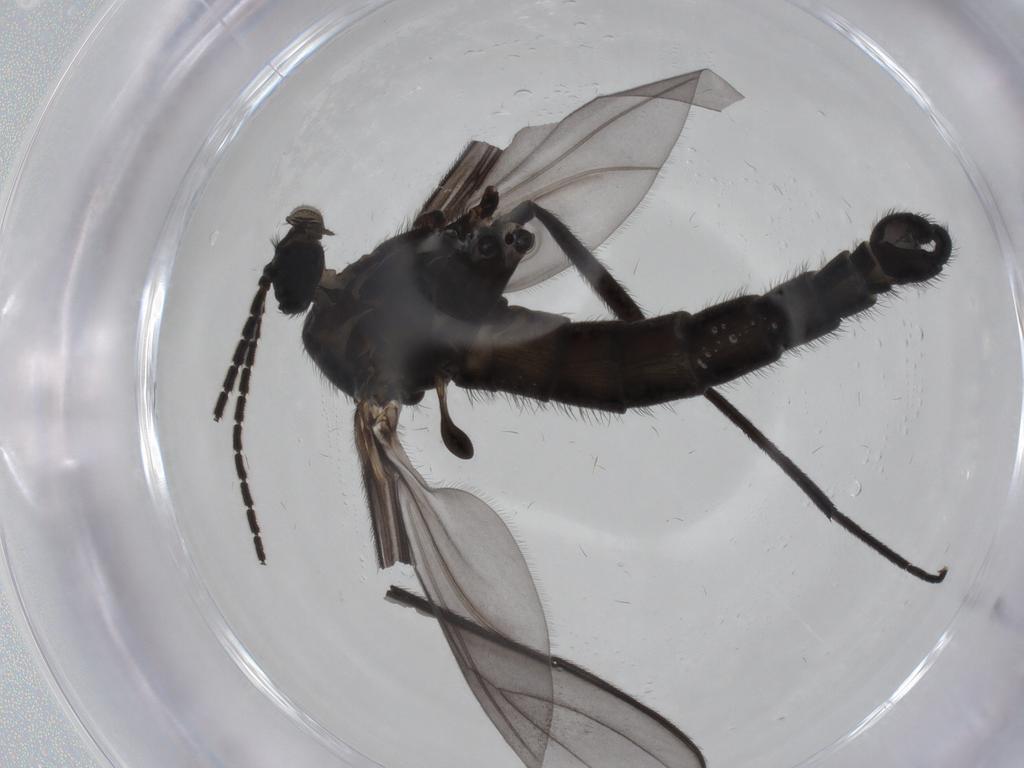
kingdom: Animalia
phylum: Arthropoda
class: Insecta
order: Diptera
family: Sciaridae
